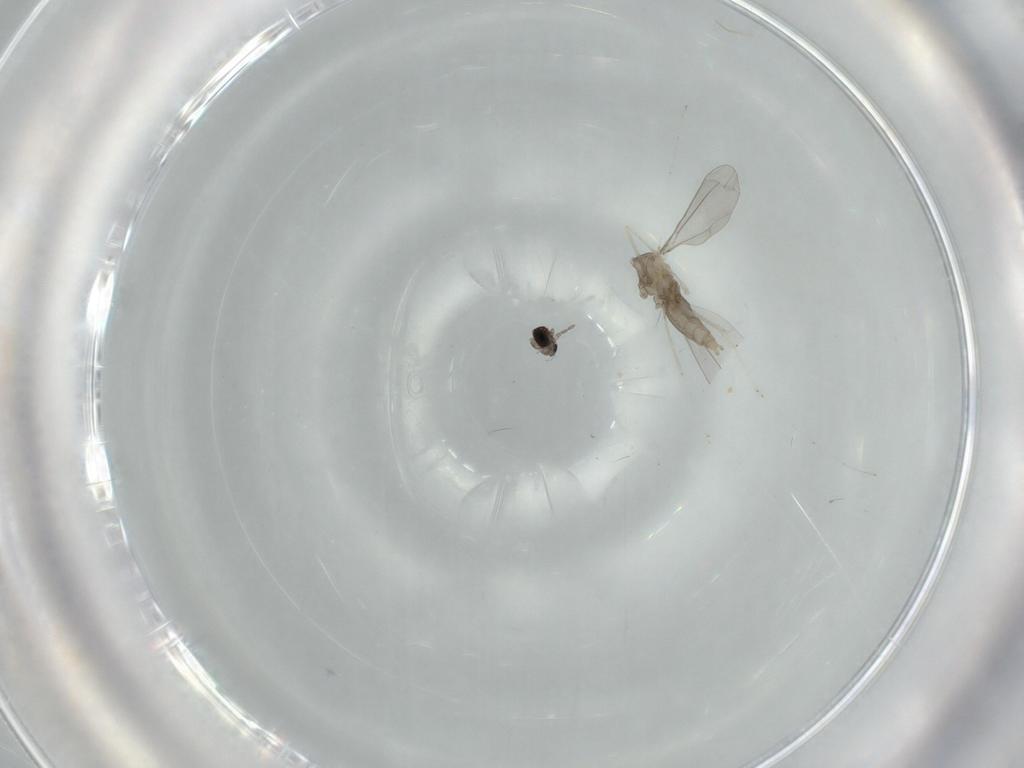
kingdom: Animalia
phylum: Arthropoda
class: Insecta
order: Diptera
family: Cecidomyiidae
